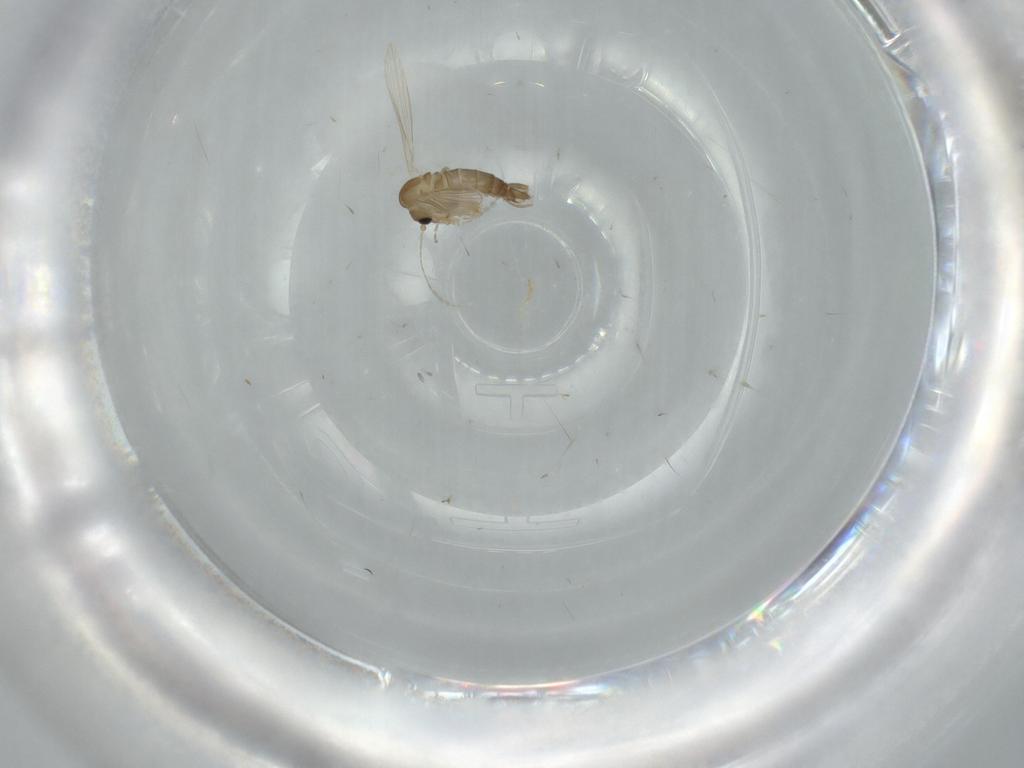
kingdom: Animalia
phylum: Arthropoda
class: Insecta
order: Diptera
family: Psychodidae
